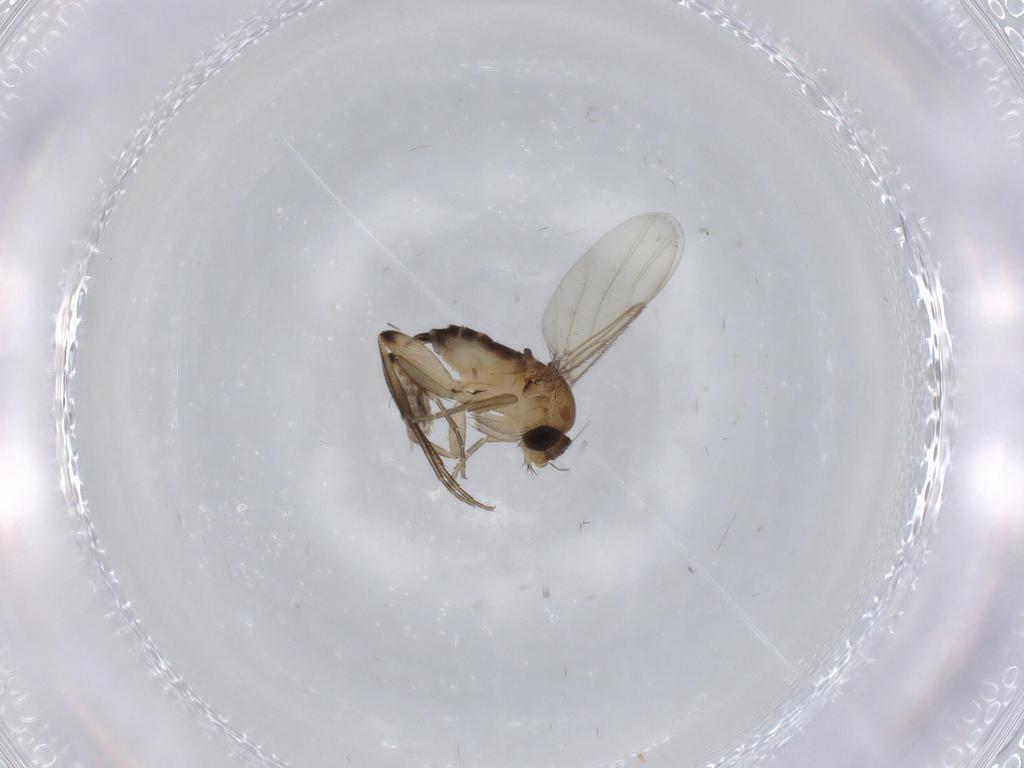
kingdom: Animalia
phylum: Arthropoda
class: Insecta
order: Diptera
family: Phoridae
